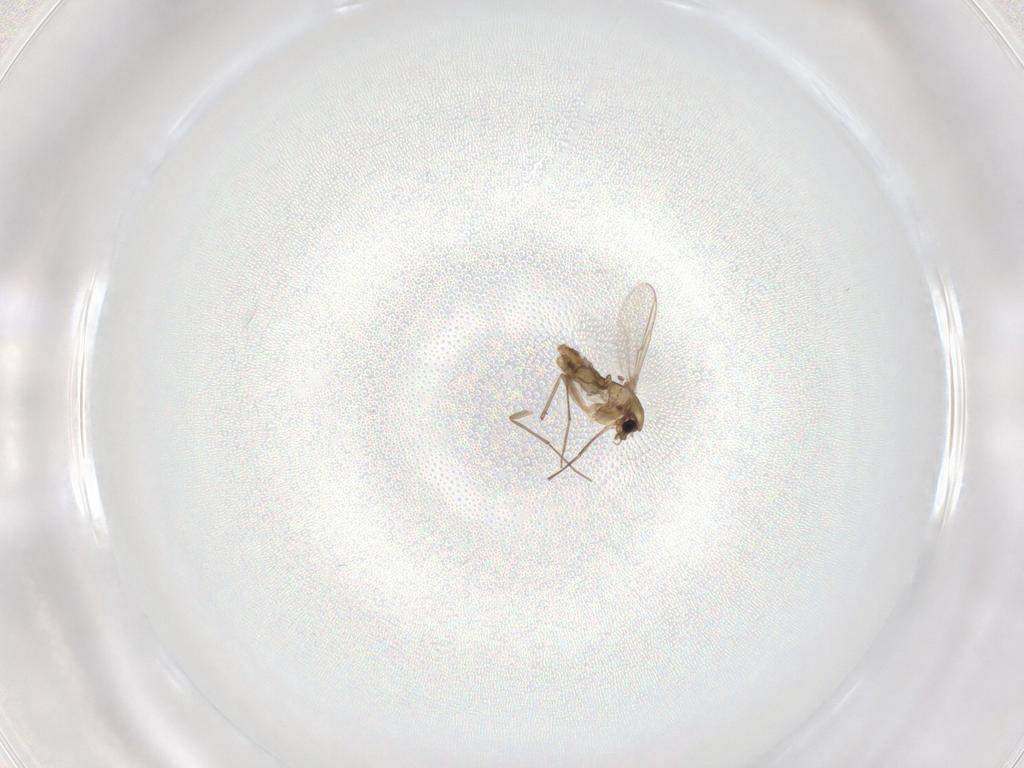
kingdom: Animalia
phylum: Arthropoda
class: Insecta
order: Diptera
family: Chironomidae
